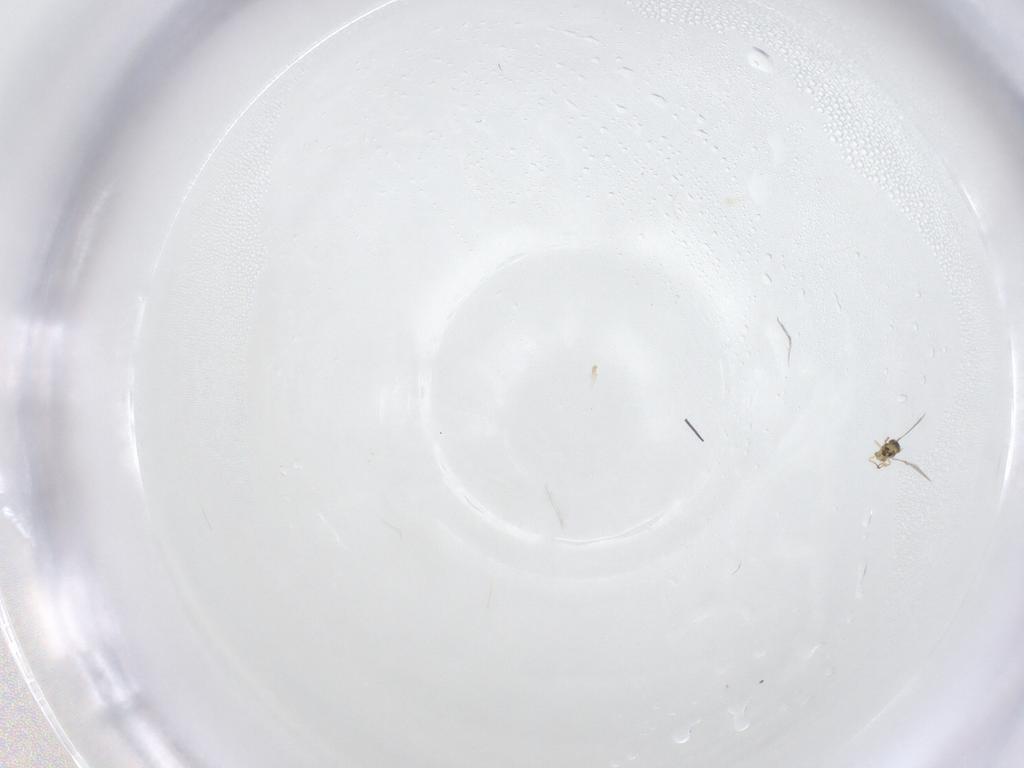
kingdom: Animalia
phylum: Arthropoda
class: Insecta
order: Hymenoptera
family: Mymaridae
